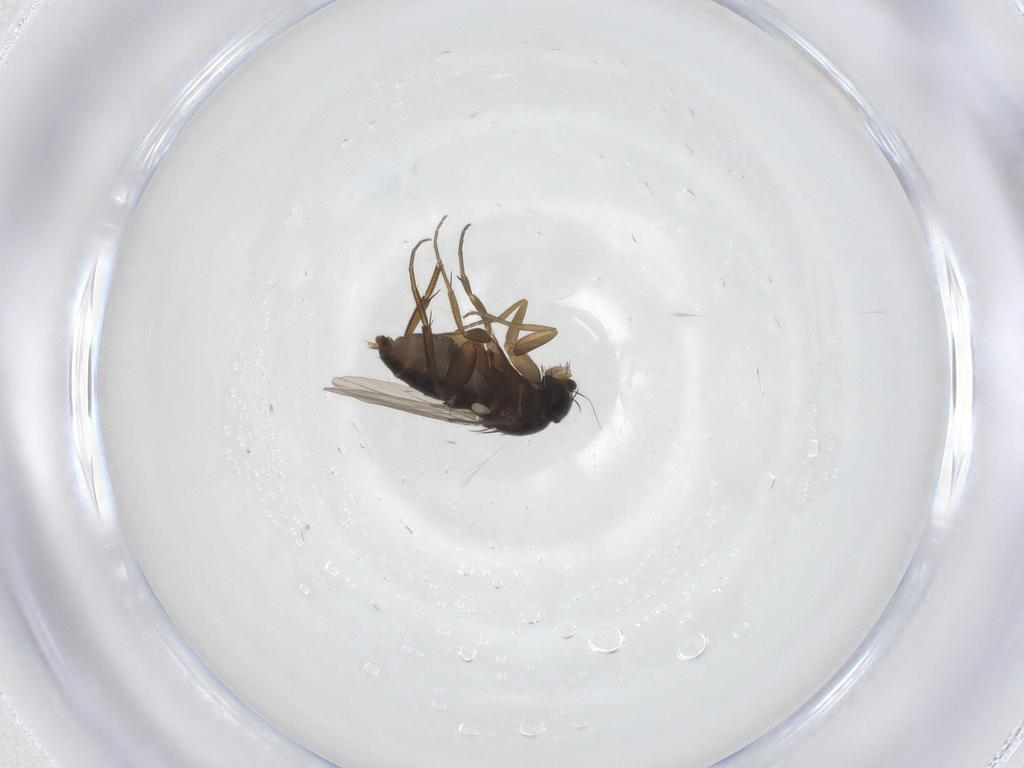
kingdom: Animalia
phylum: Arthropoda
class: Insecta
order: Diptera
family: Phoridae
